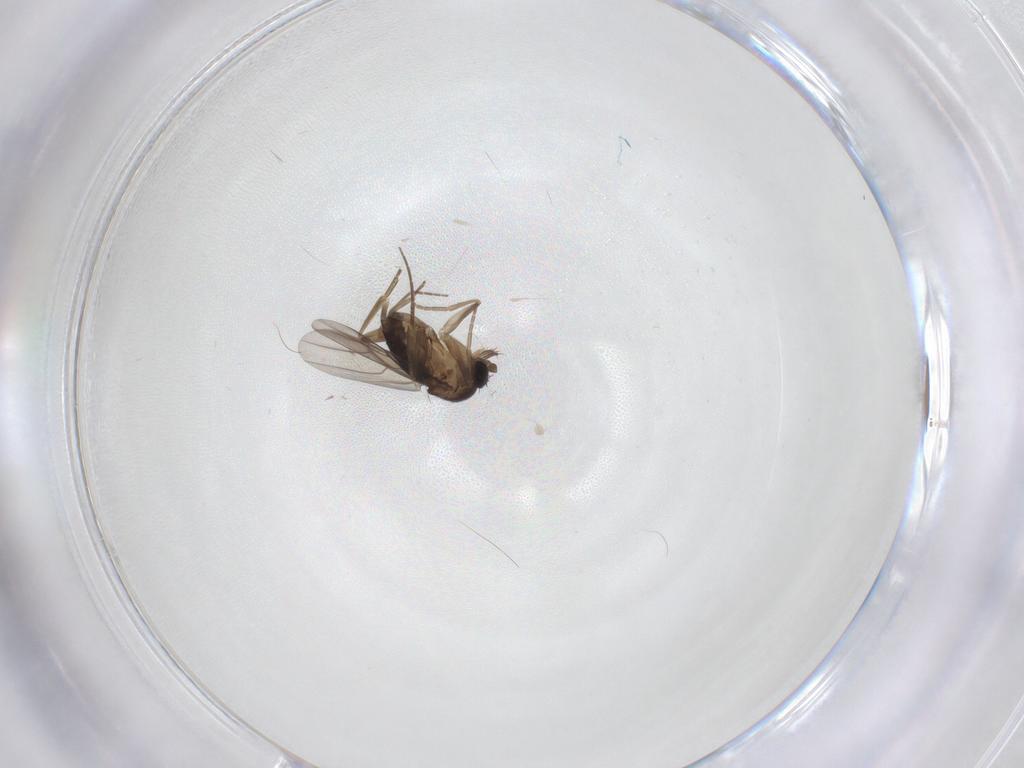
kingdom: Animalia
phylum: Arthropoda
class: Insecta
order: Diptera
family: Phoridae
